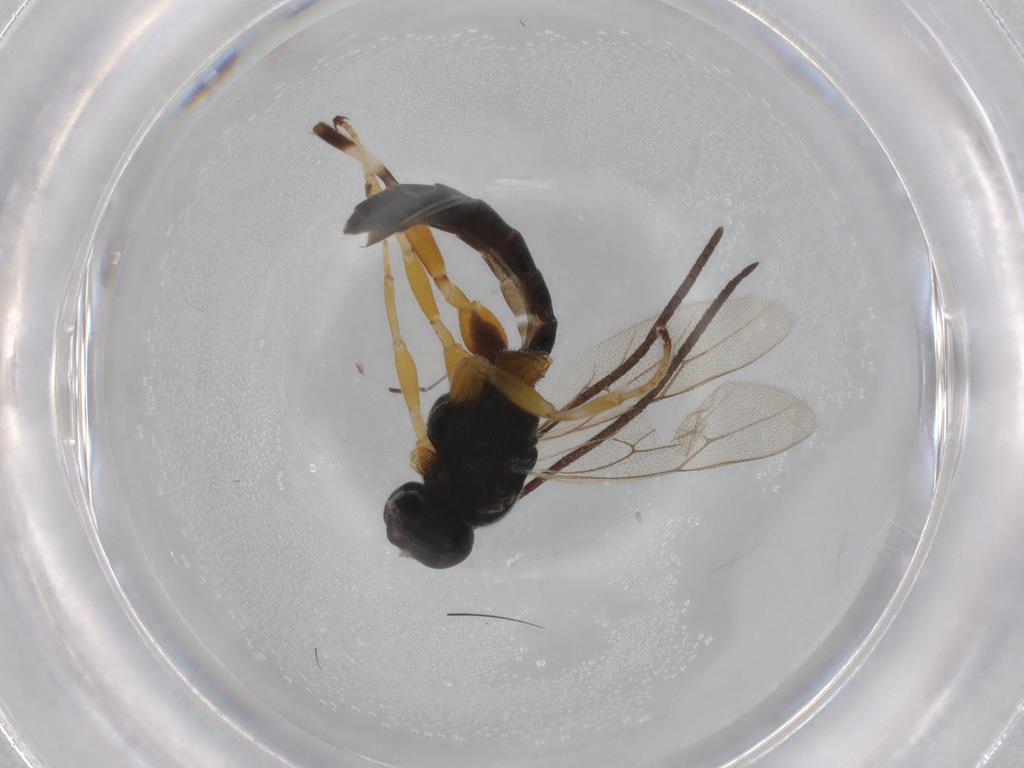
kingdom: Animalia
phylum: Arthropoda
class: Insecta
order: Hymenoptera
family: Ichneumonidae
